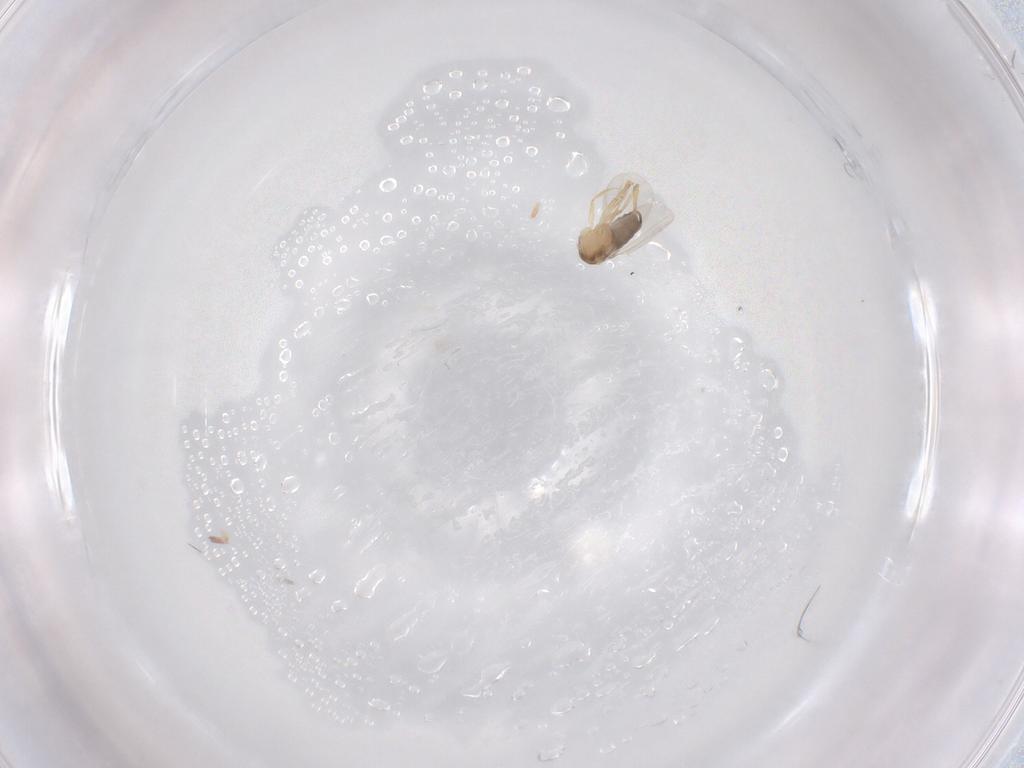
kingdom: Animalia
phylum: Arthropoda
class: Insecta
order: Diptera
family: Phoridae
